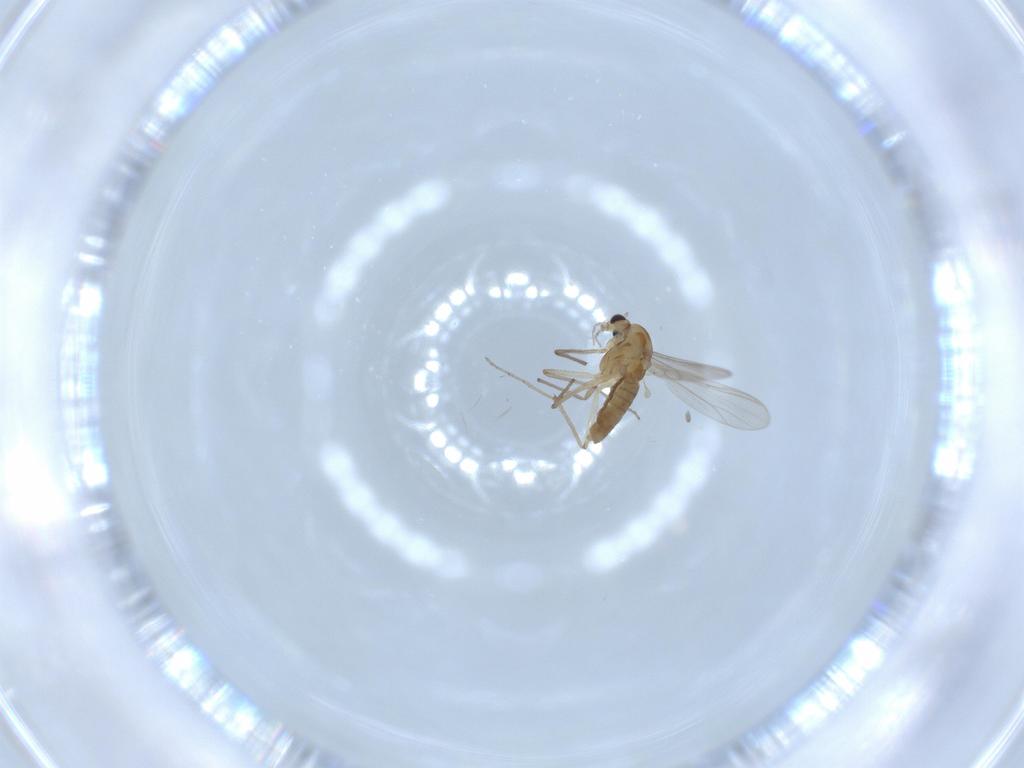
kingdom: Animalia
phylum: Arthropoda
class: Insecta
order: Diptera
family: Chironomidae
